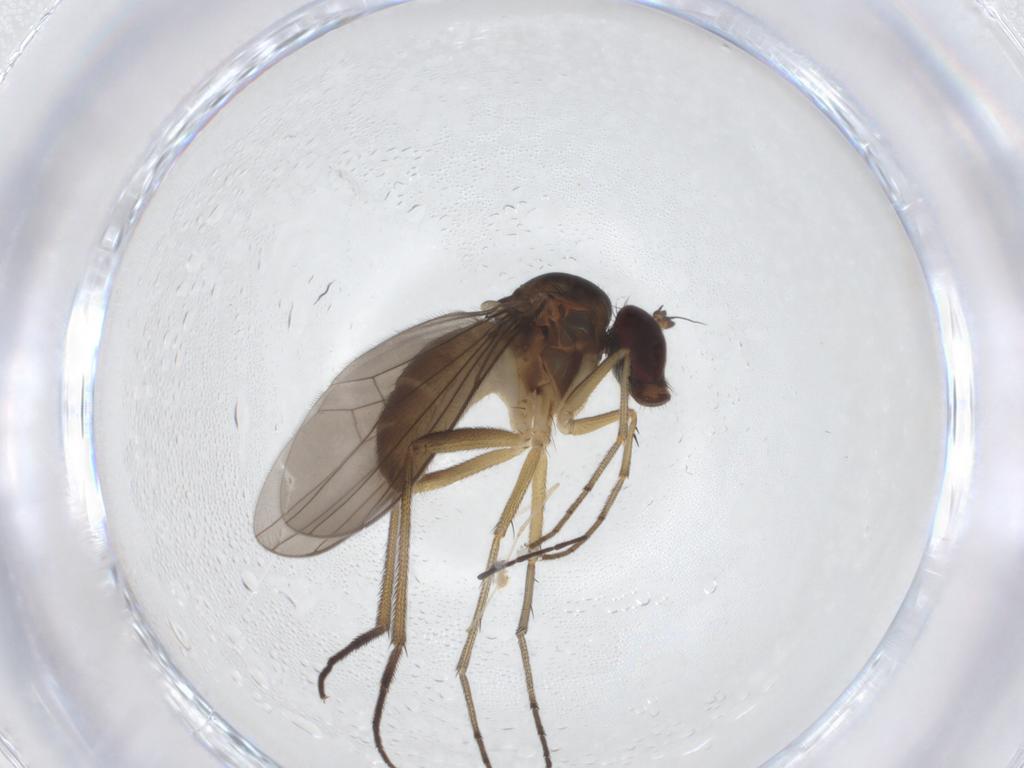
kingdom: Animalia
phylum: Arthropoda
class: Insecta
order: Diptera
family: Dolichopodidae
